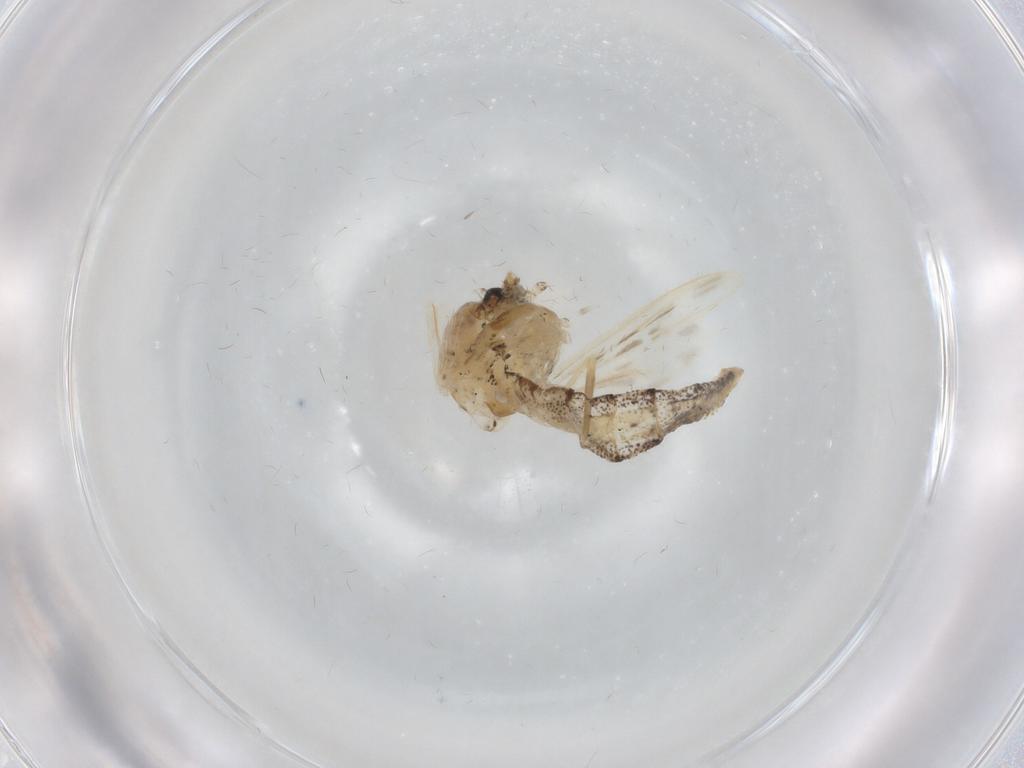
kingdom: Animalia
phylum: Arthropoda
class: Insecta
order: Diptera
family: Chaoboridae
